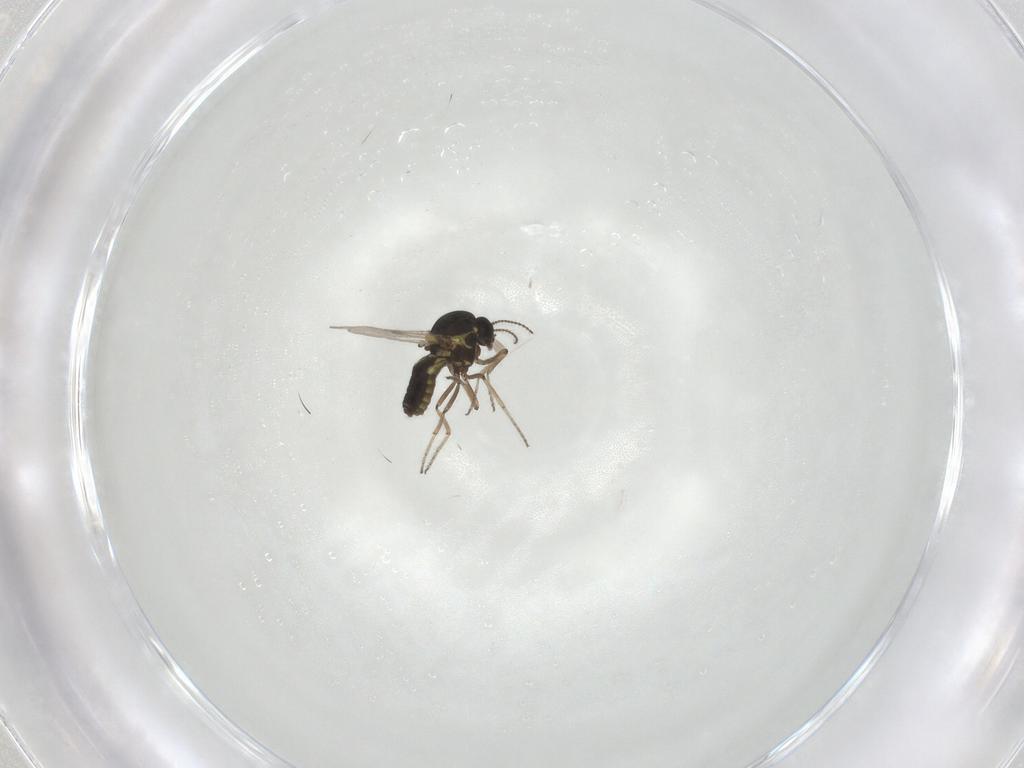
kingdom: Animalia
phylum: Arthropoda
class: Insecta
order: Diptera
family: Ceratopogonidae
